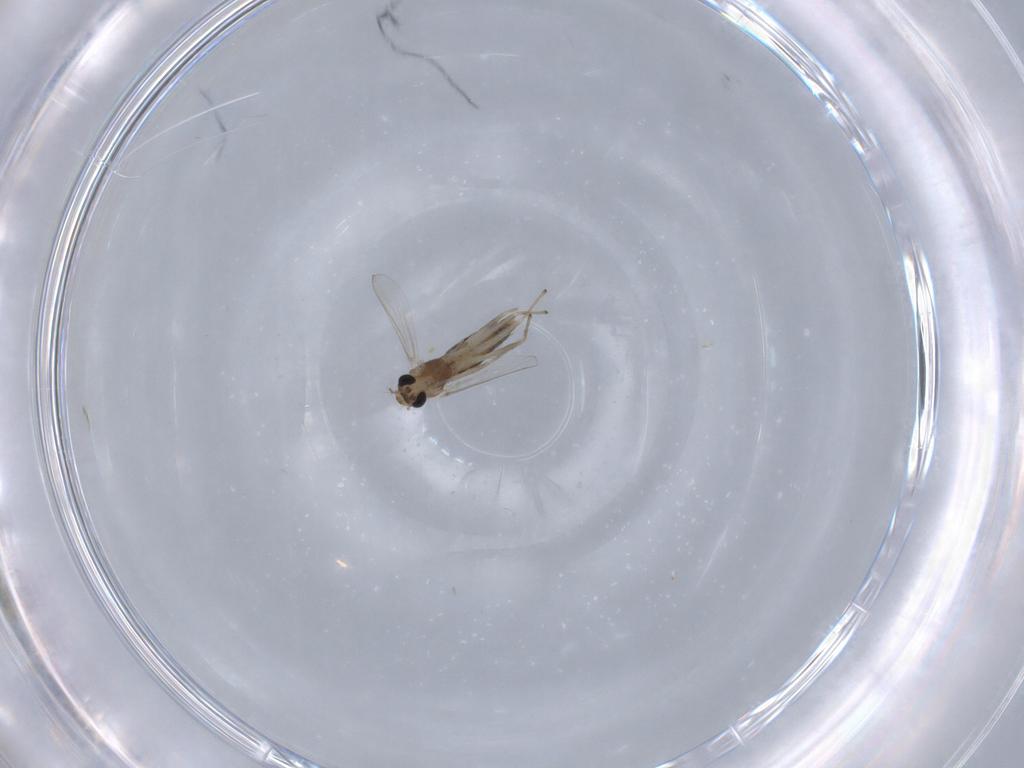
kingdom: Animalia
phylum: Arthropoda
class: Insecta
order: Diptera
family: Chironomidae
